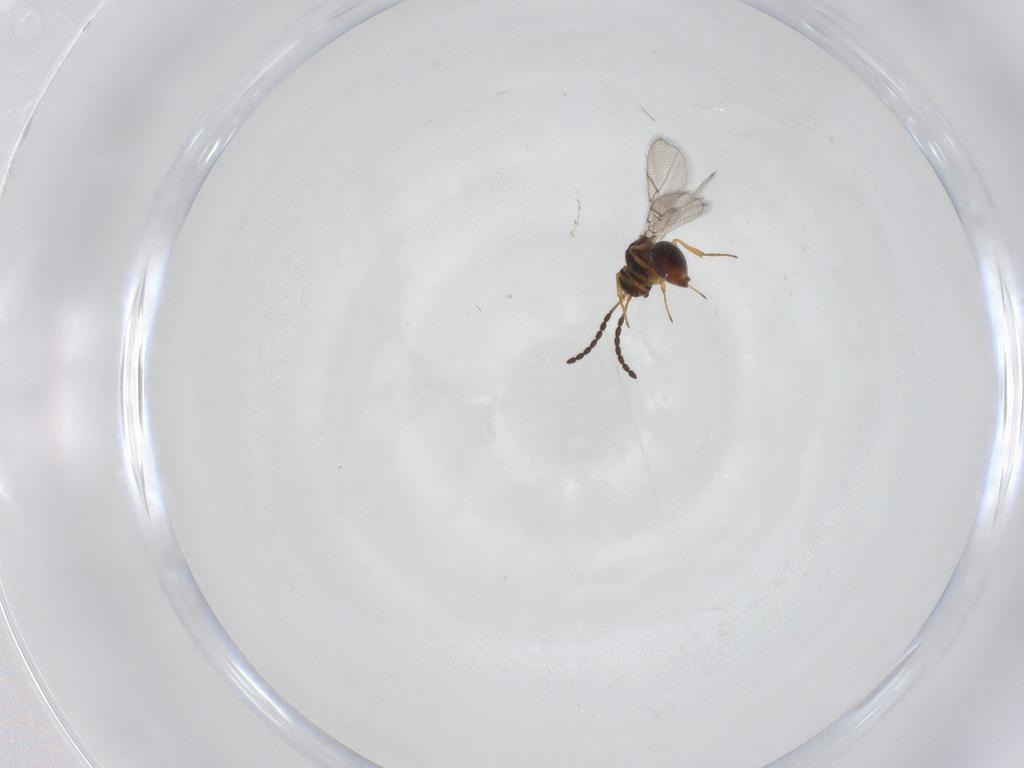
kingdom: Animalia
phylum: Arthropoda
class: Insecta
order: Hymenoptera
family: Figitidae
